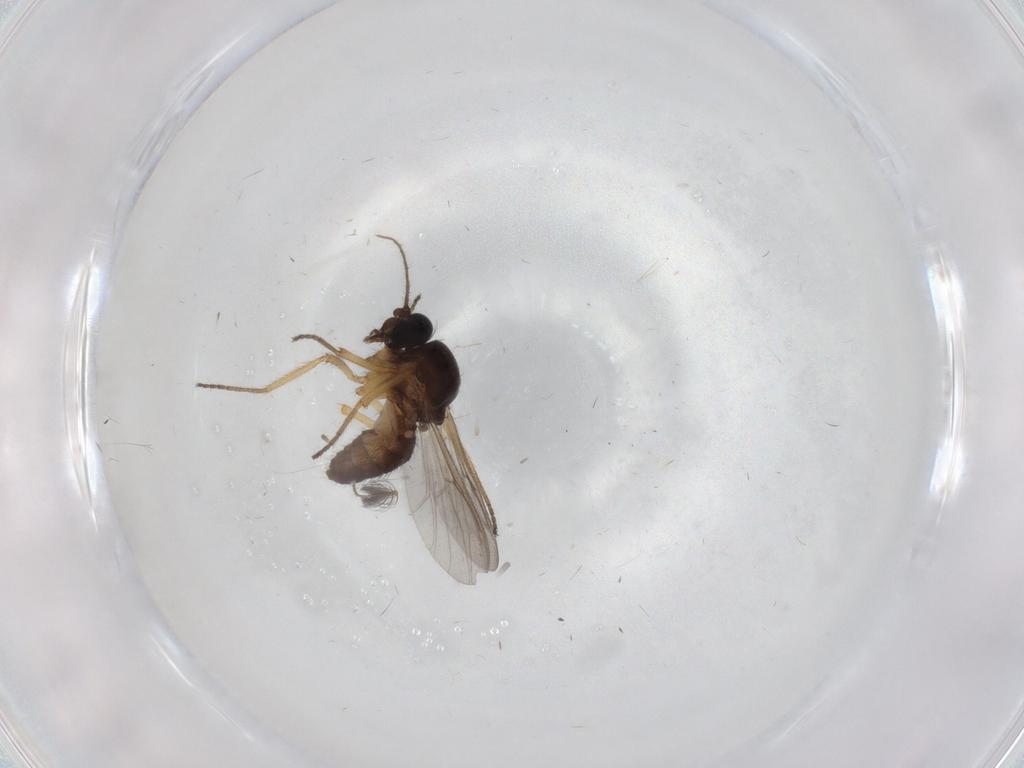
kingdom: Animalia
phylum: Arthropoda
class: Insecta
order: Diptera
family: Ceratopogonidae
